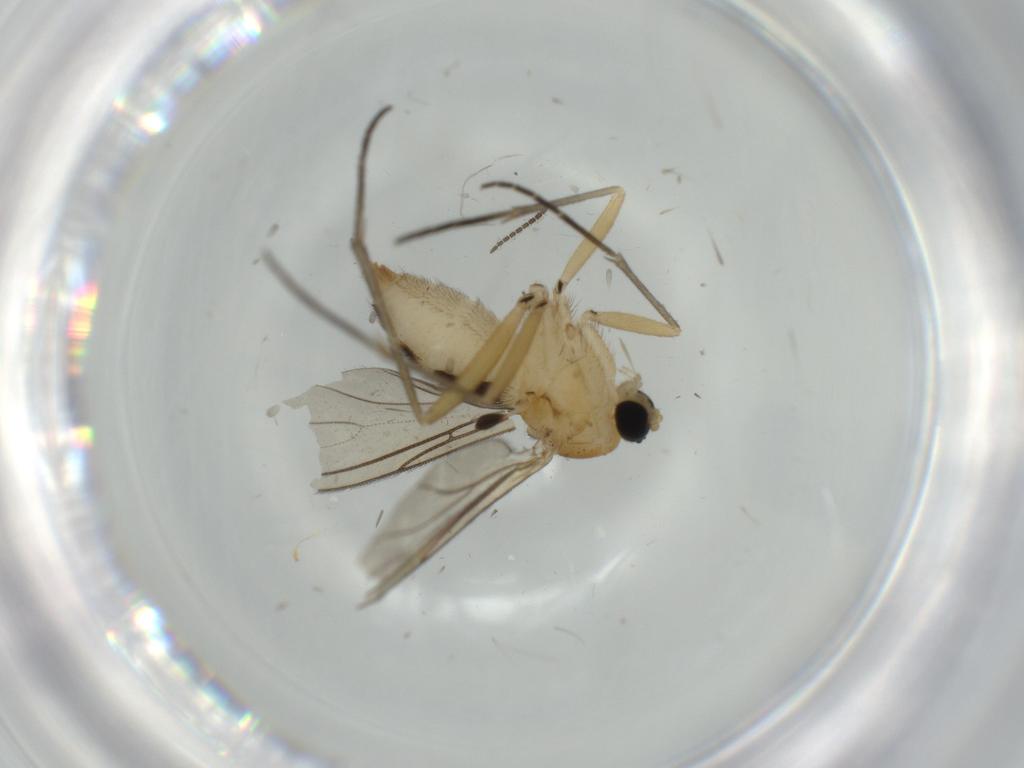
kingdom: Animalia
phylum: Arthropoda
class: Insecta
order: Diptera
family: Sciaridae
